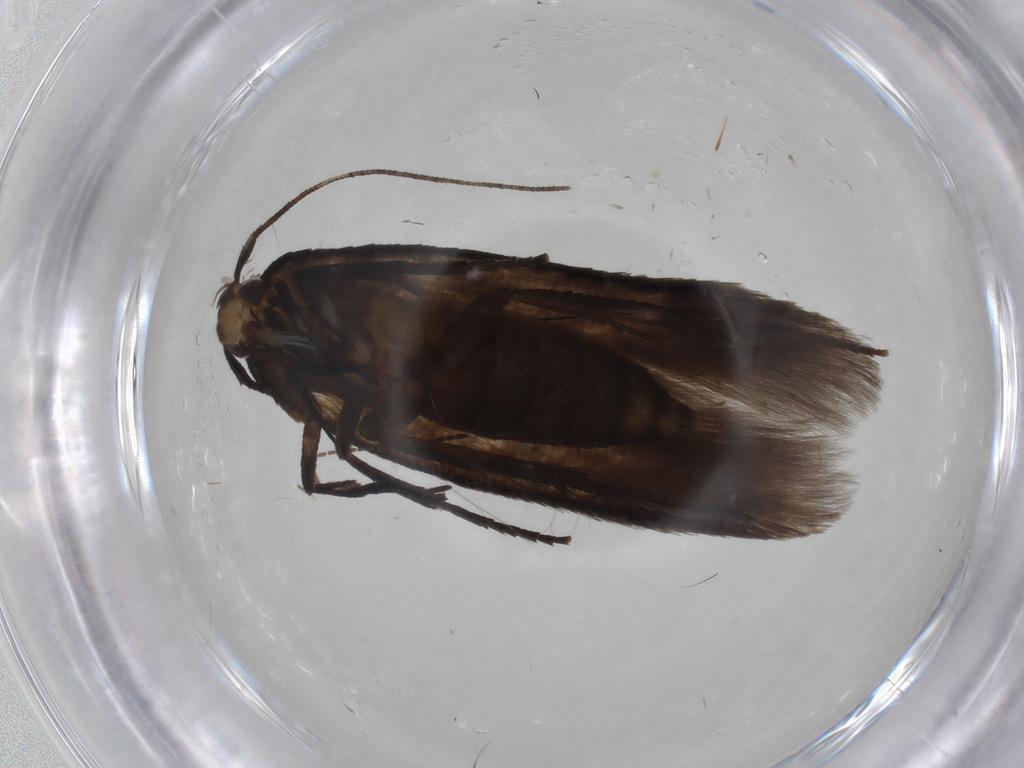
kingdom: Animalia
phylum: Arthropoda
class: Insecta
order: Lepidoptera
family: Cosmopterigidae
